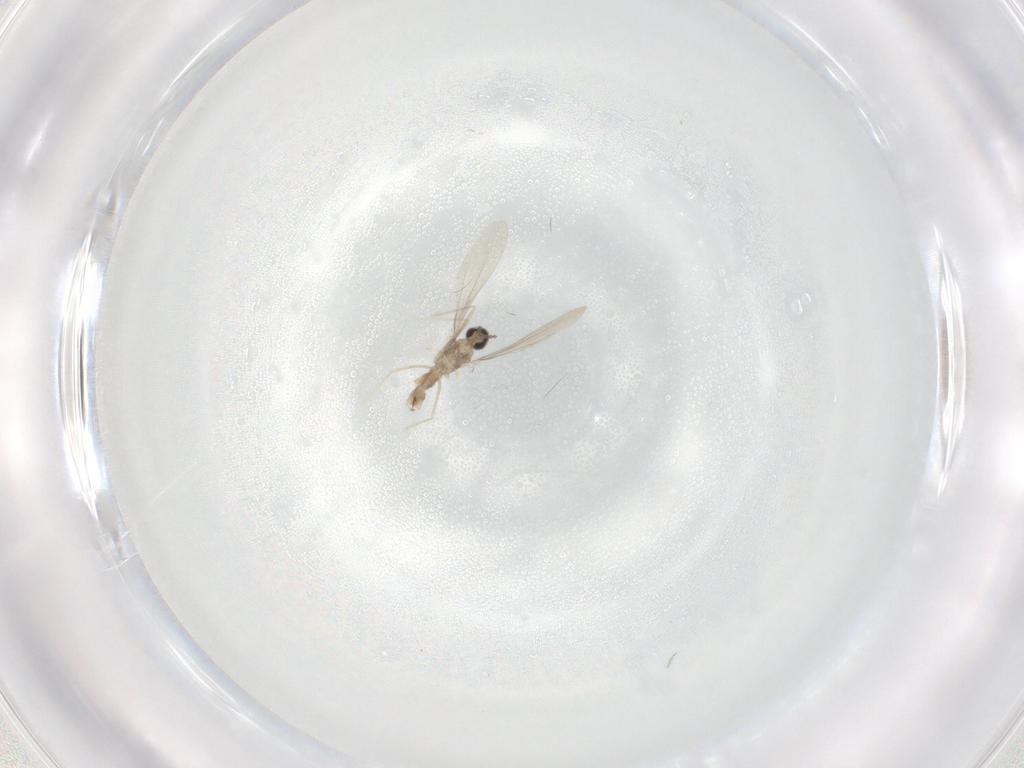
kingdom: Animalia
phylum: Arthropoda
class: Insecta
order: Diptera
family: Cecidomyiidae
